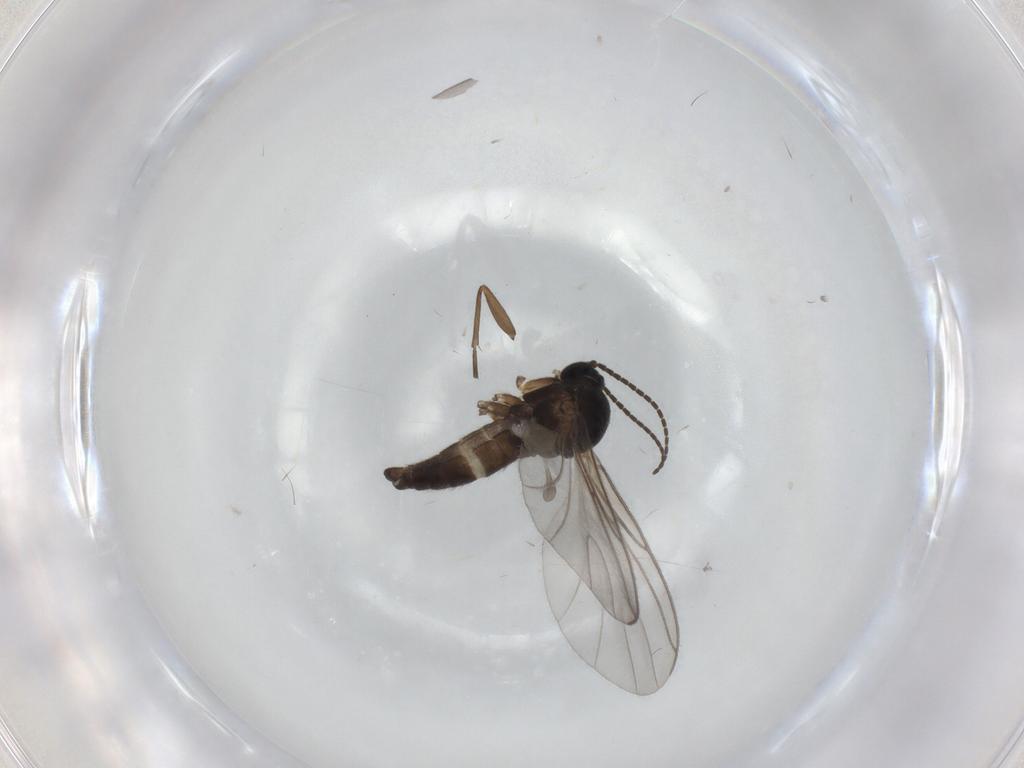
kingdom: Animalia
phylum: Arthropoda
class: Insecta
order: Diptera
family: Sciaridae
